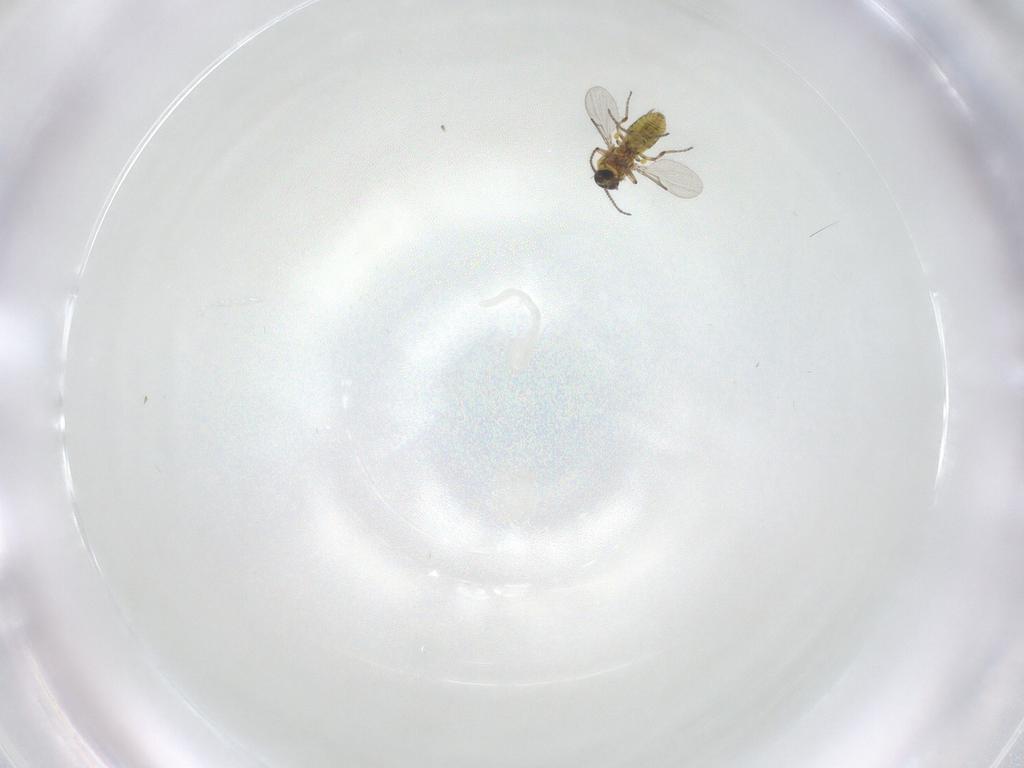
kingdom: Animalia
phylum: Arthropoda
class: Insecta
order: Diptera
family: Ceratopogonidae
